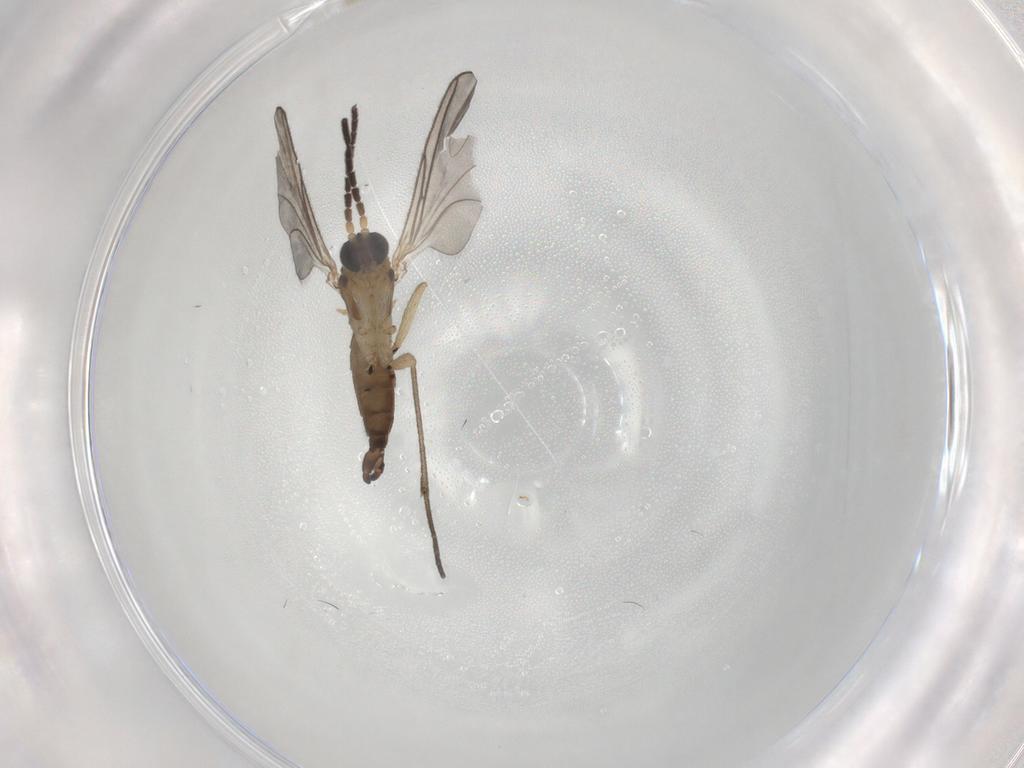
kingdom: Animalia
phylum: Arthropoda
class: Insecta
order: Diptera
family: Sciaridae
